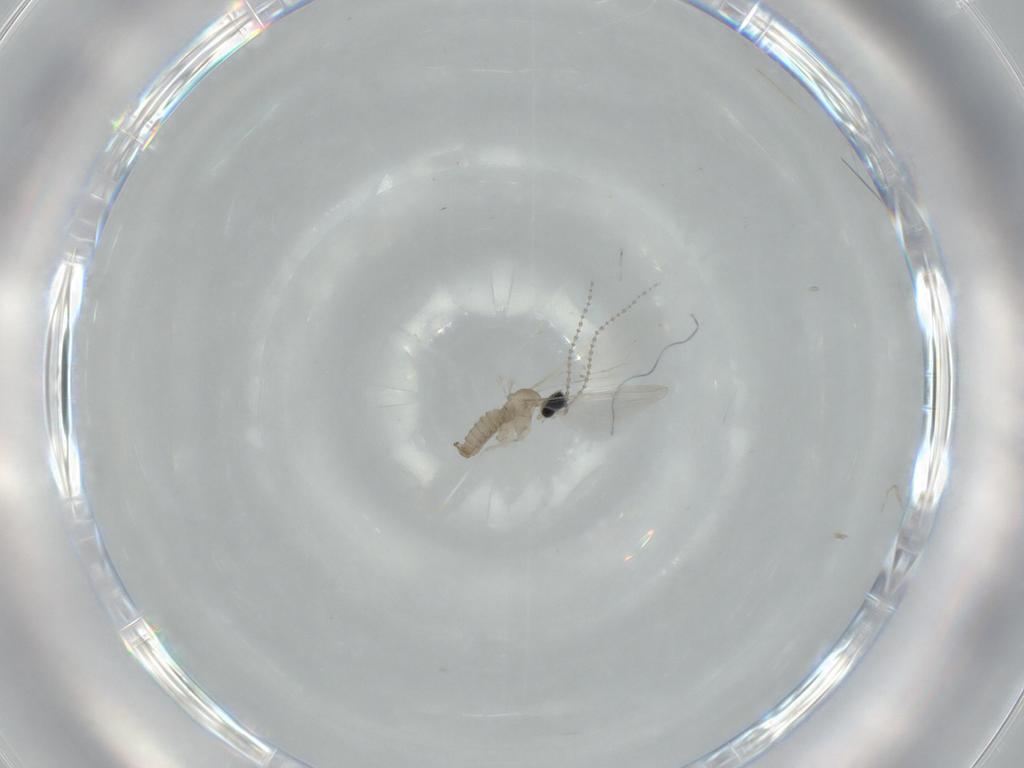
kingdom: Animalia
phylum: Arthropoda
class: Insecta
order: Diptera
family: Cecidomyiidae
